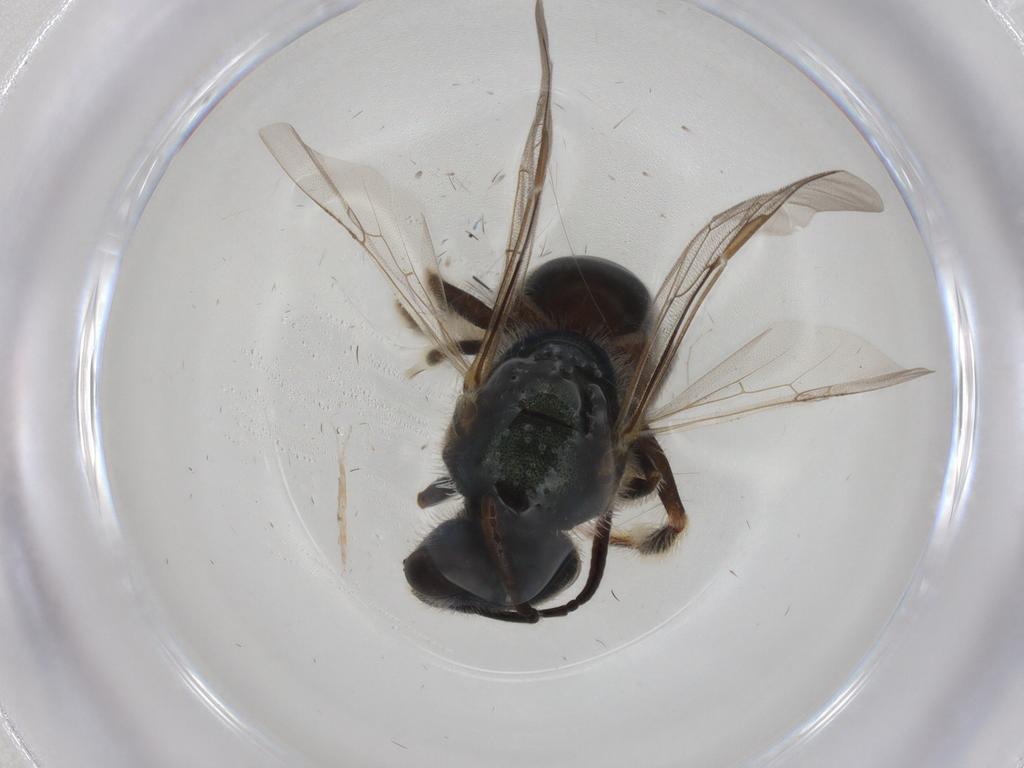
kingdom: Animalia
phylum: Arthropoda
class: Insecta
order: Hymenoptera
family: Halictidae
